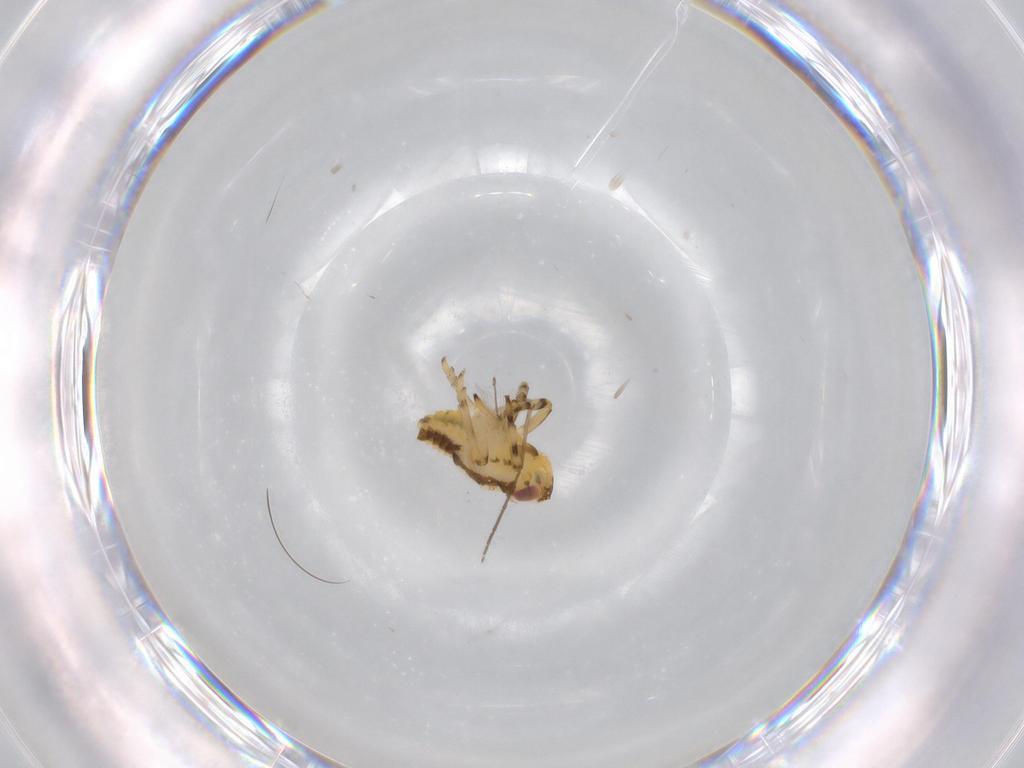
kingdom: Animalia
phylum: Arthropoda
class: Insecta
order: Hemiptera
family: Issidae
